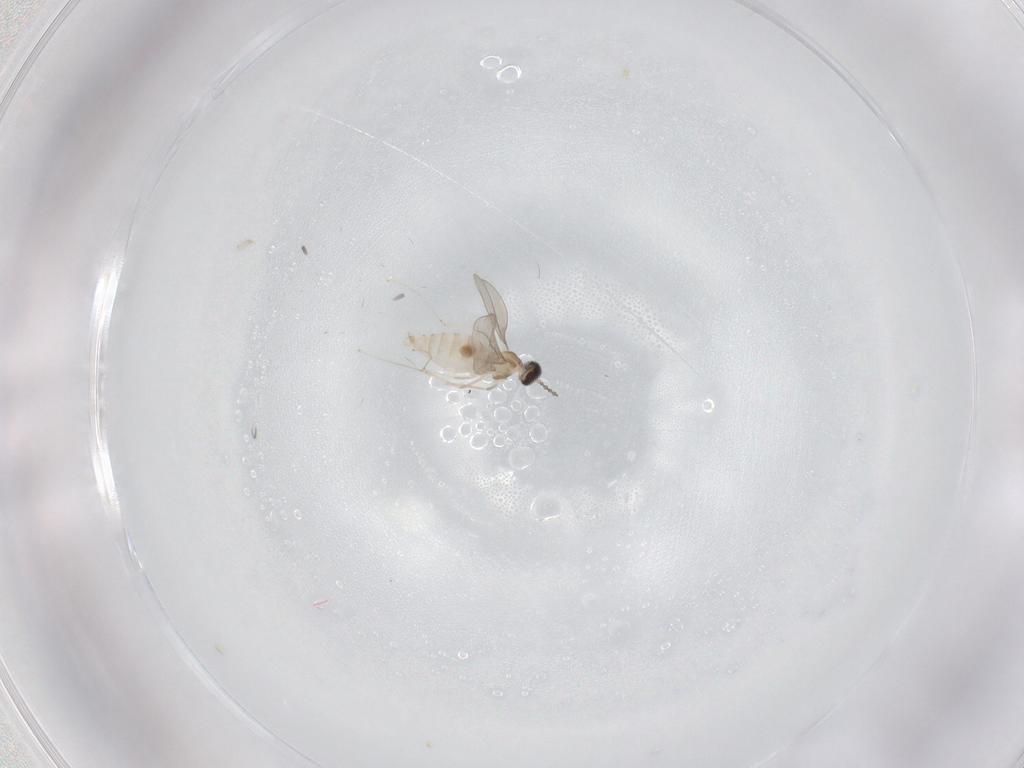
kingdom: Animalia
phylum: Arthropoda
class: Insecta
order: Diptera
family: Cecidomyiidae
